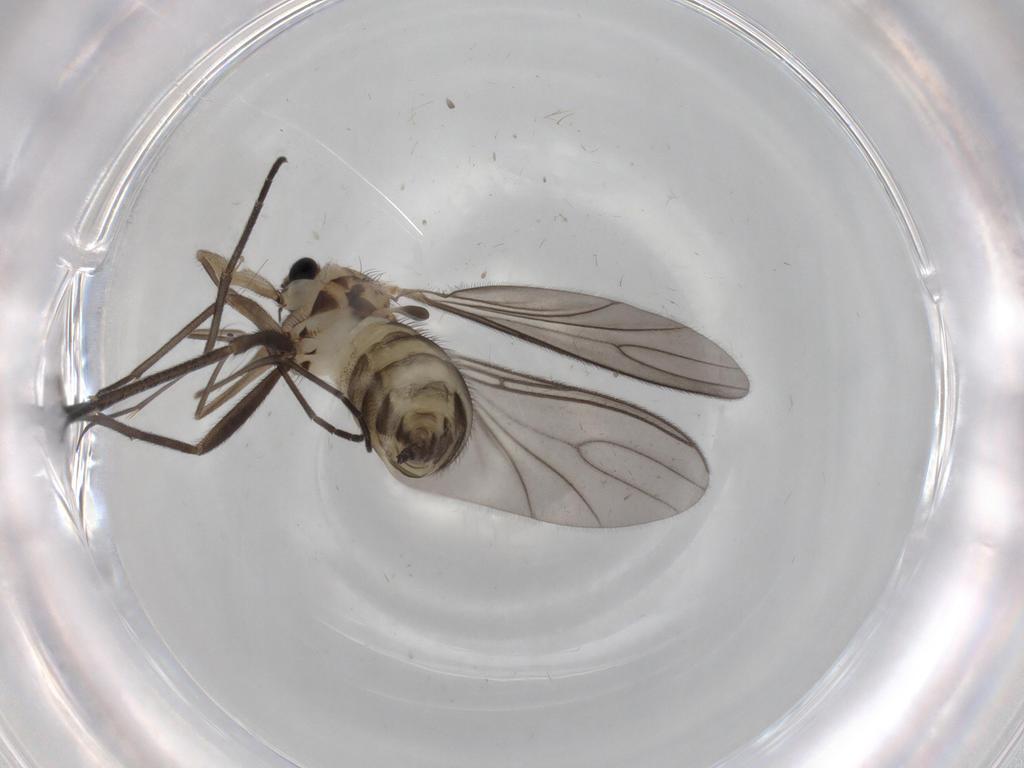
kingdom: Animalia
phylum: Arthropoda
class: Insecta
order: Diptera
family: Sciaridae
